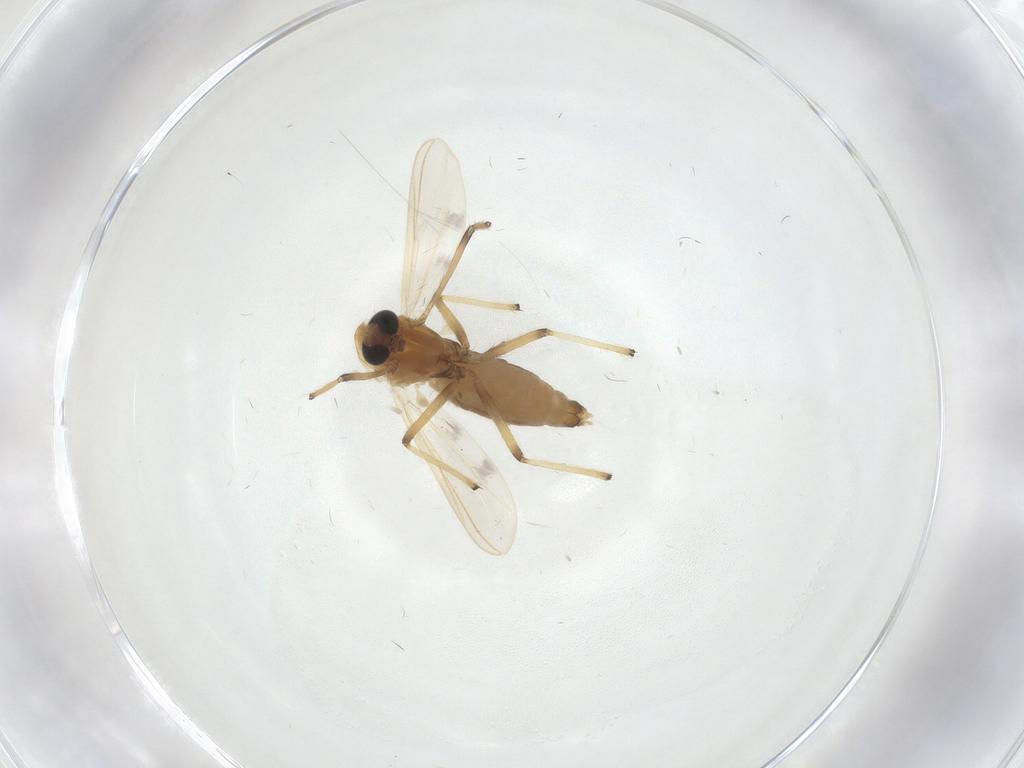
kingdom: Animalia
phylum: Arthropoda
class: Insecta
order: Diptera
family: Chironomidae
